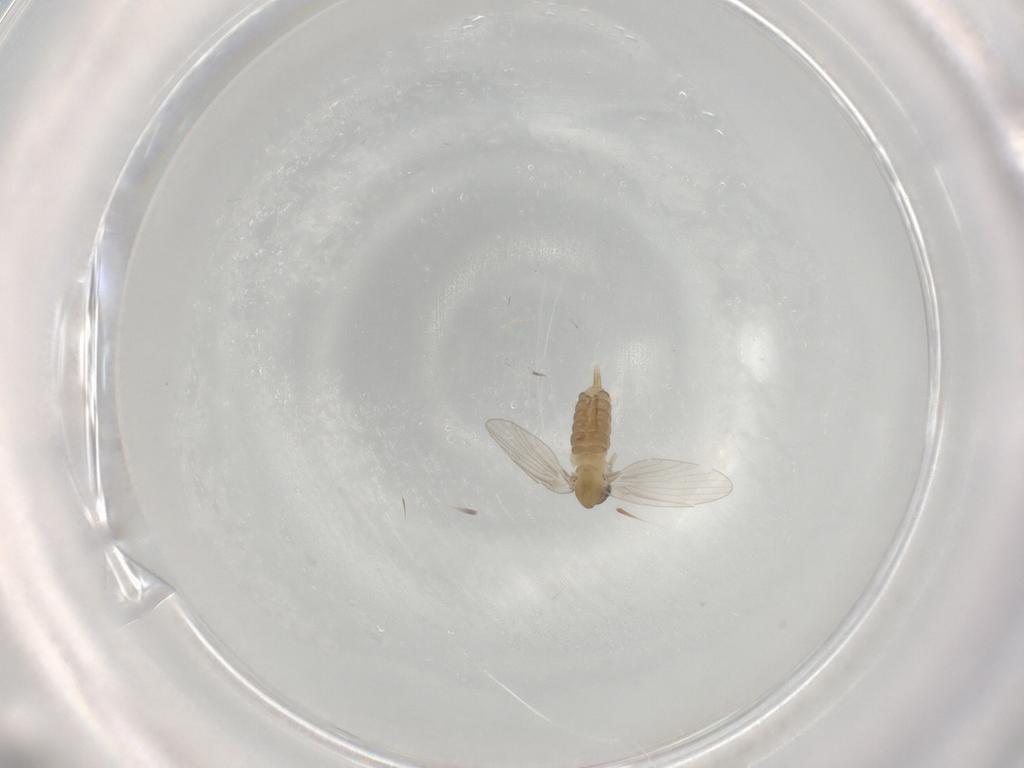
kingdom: Animalia
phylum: Arthropoda
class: Insecta
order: Diptera
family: Psychodidae
